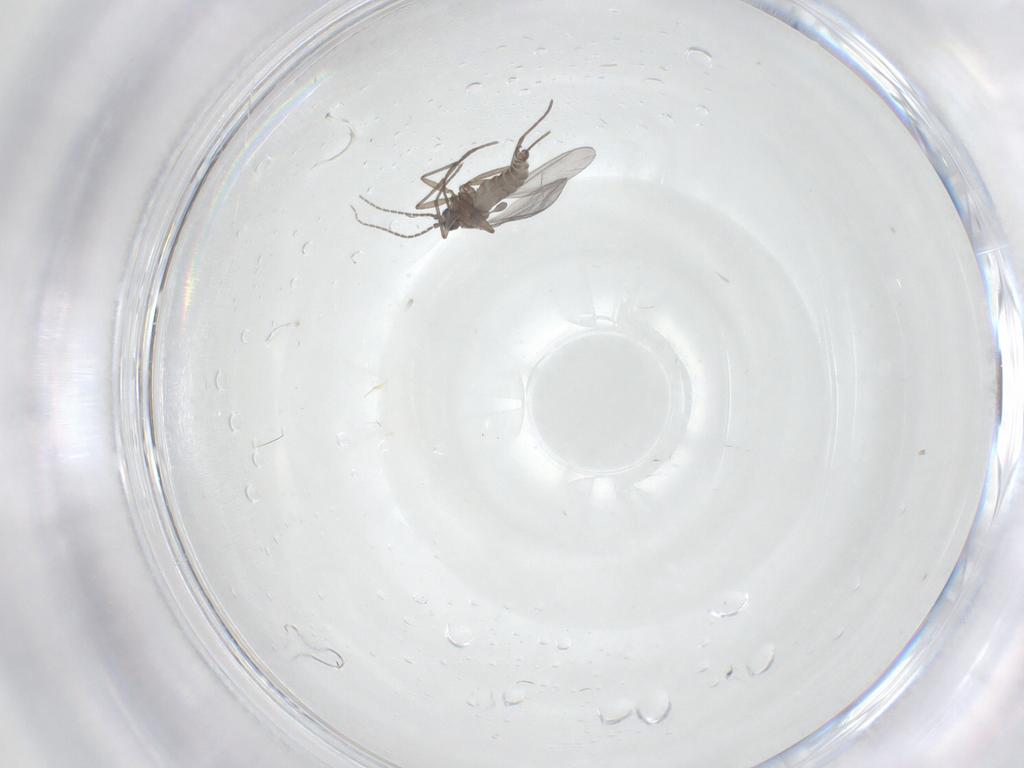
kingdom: Animalia
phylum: Arthropoda
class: Insecta
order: Diptera
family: Sciaridae
